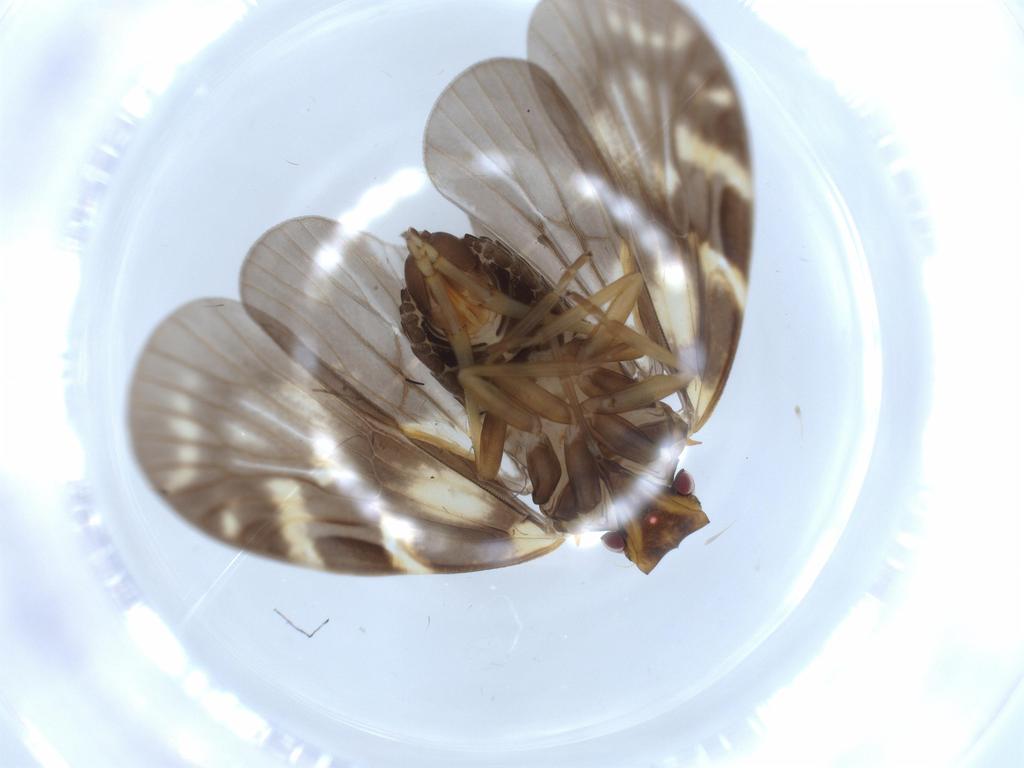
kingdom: Animalia
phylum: Arthropoda
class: Insecta
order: Hemiptera
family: Cixiidae
